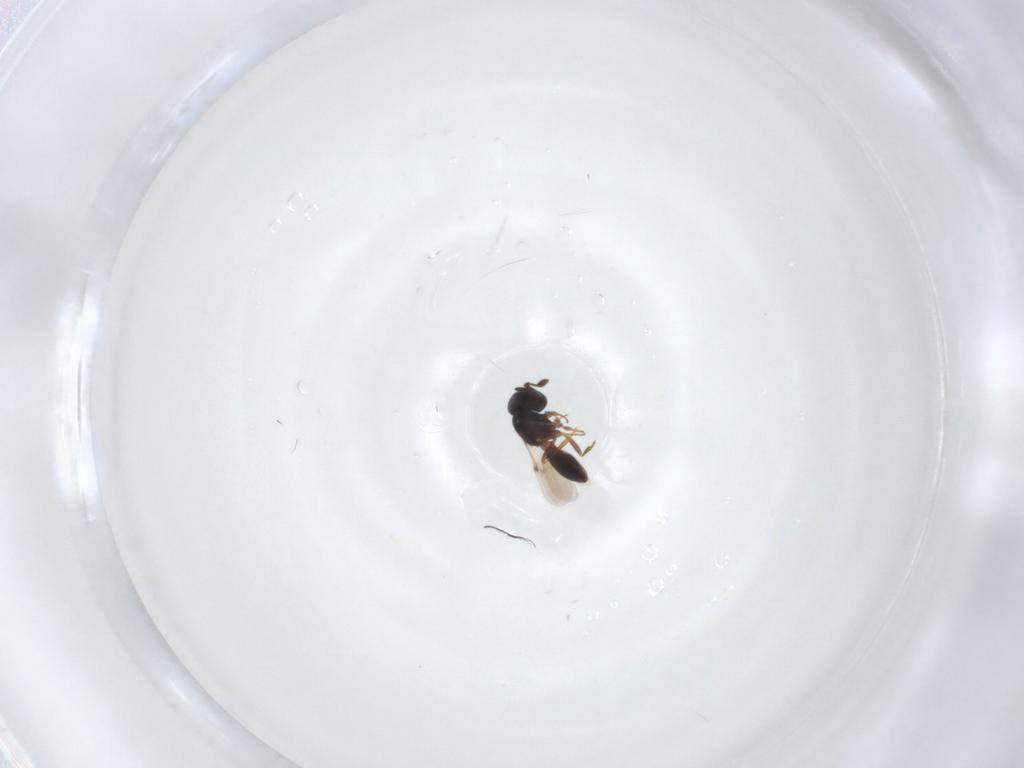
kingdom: Animalia
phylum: Arthropoda
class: Insecta
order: Hymenoptera
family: Scelionidae
